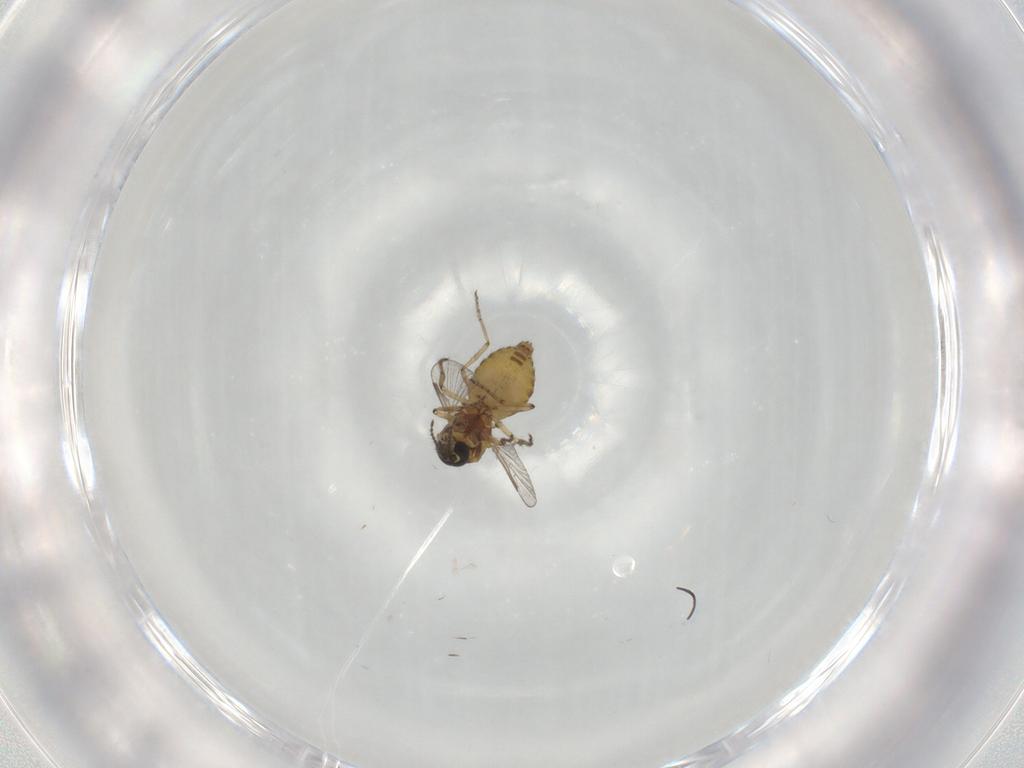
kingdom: Animalia
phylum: Arthropoda
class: Insecta
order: Diptera
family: Ceratopogonidae
